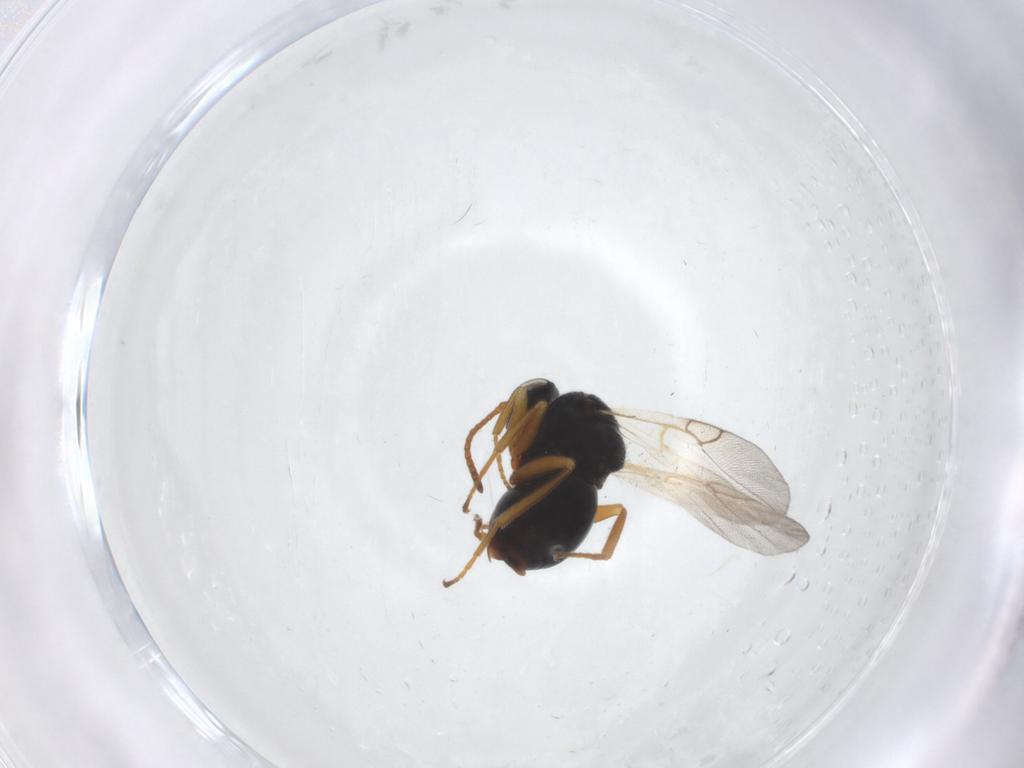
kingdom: Animalia
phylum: Arthropoda
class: Insecta
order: Hymenoptera
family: Cynipidae
